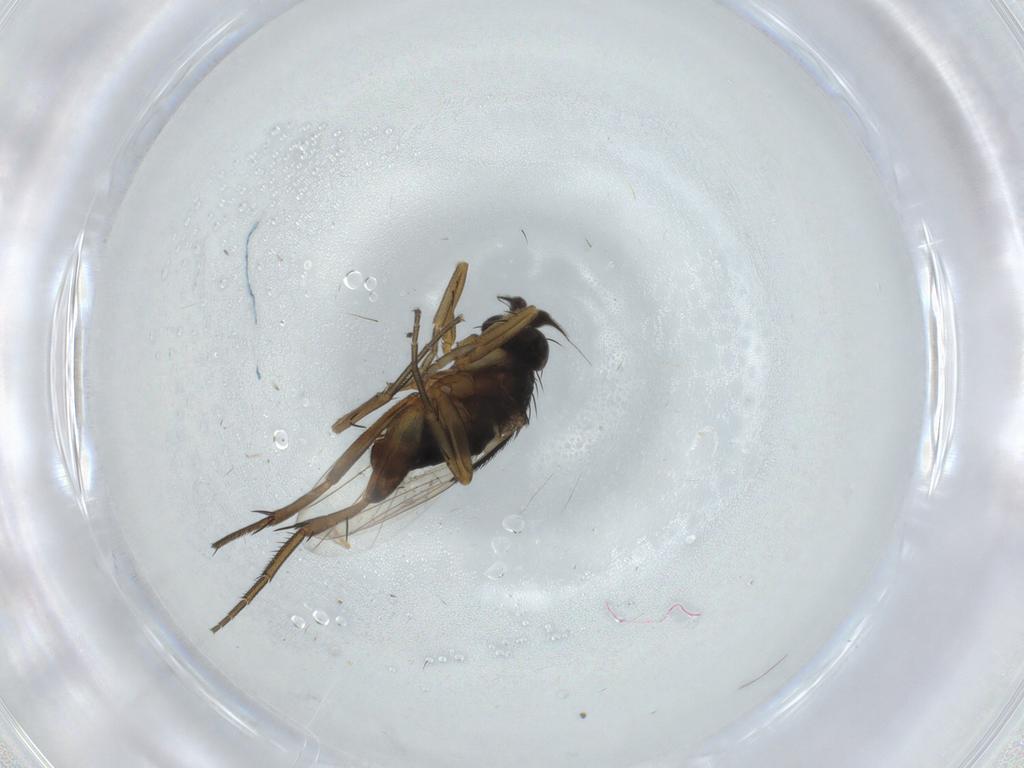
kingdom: Animalia
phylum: Arthropoda
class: Insecta
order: Diptera
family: Phoridae
